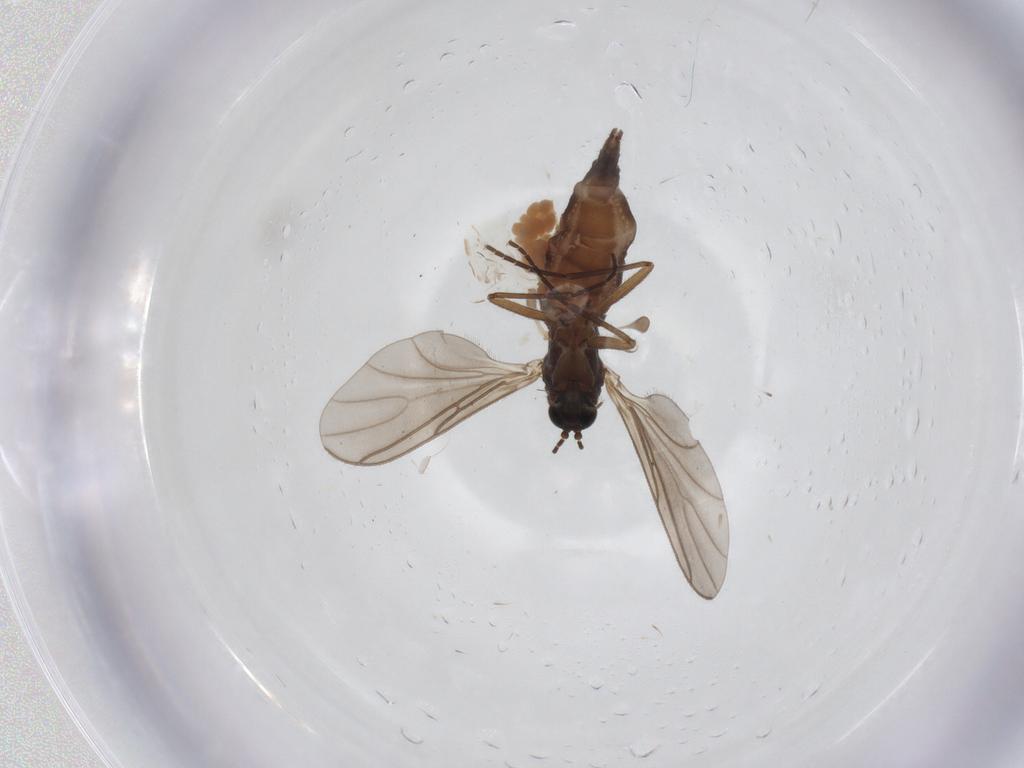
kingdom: Animalia
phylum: Arthropoda
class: Insecta
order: Diptera
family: Sciaridae
